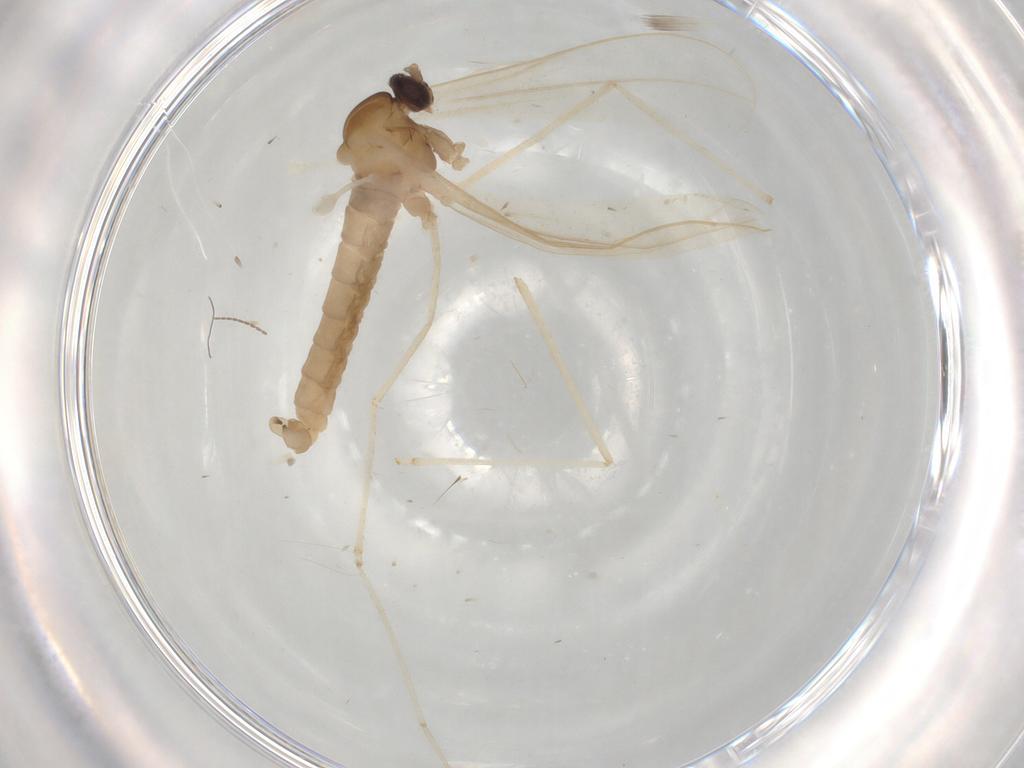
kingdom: Animalia
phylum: Arthropoda
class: Insecta
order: Diptera
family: Cecidomyiidae
